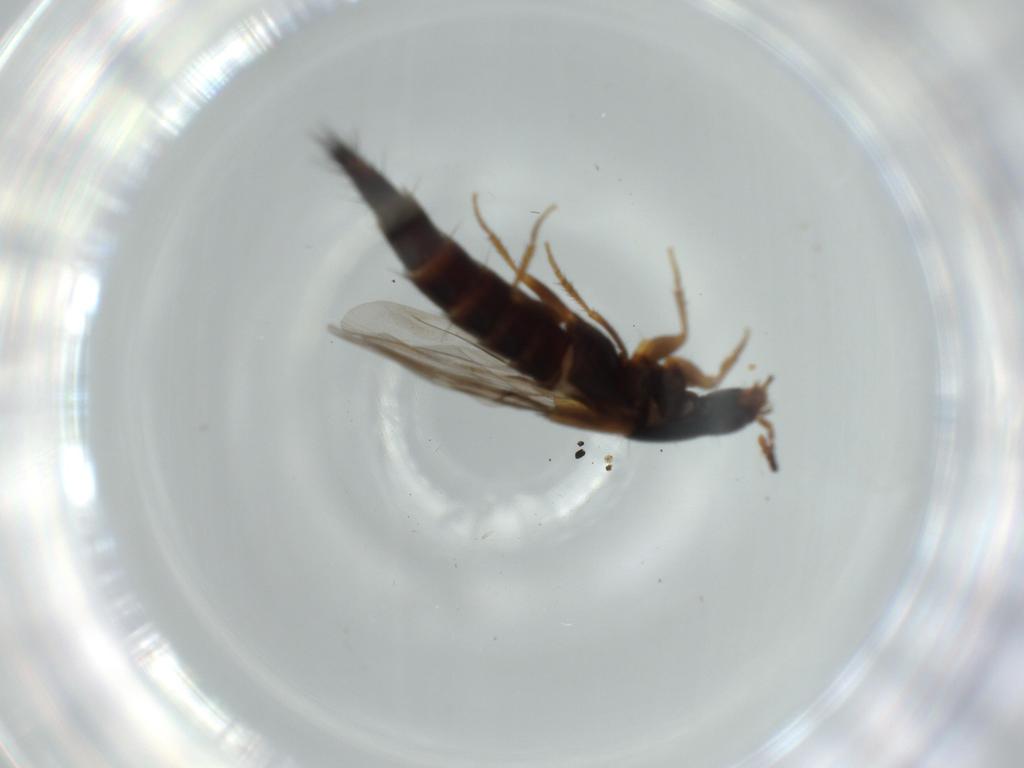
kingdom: Animalia
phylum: Arthropoda
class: Insecta
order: Coleoptera
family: Staphylinidae
